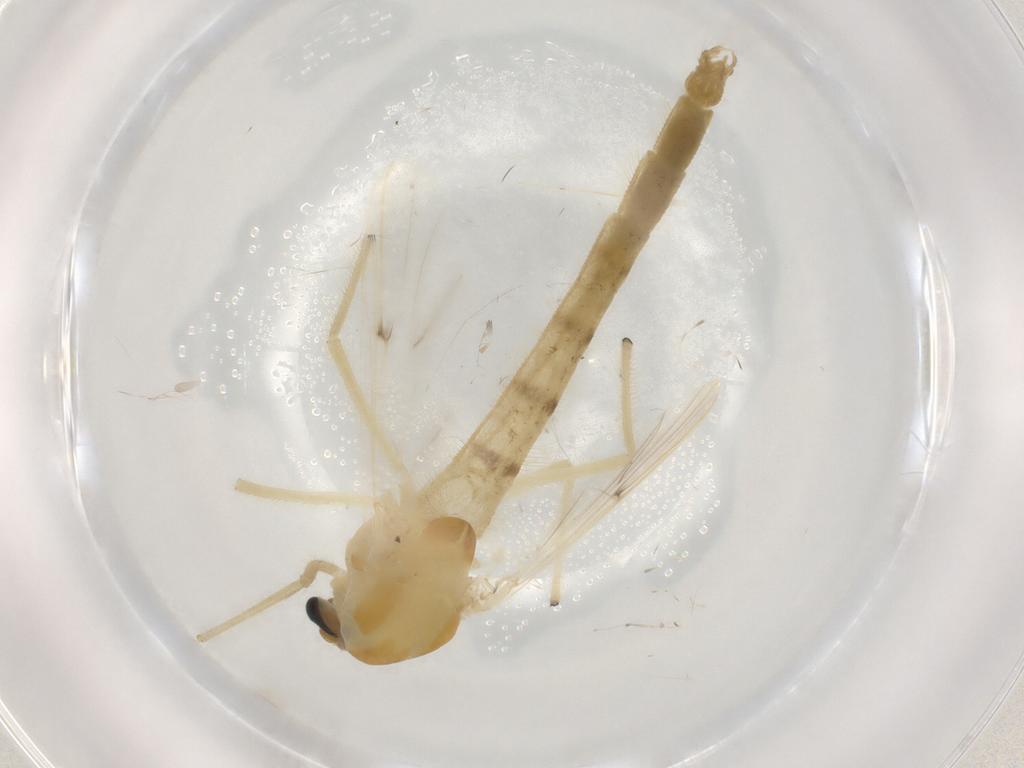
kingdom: Animalia
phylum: Arthropoda
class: Insecta
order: Diptera
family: Chironomidae
